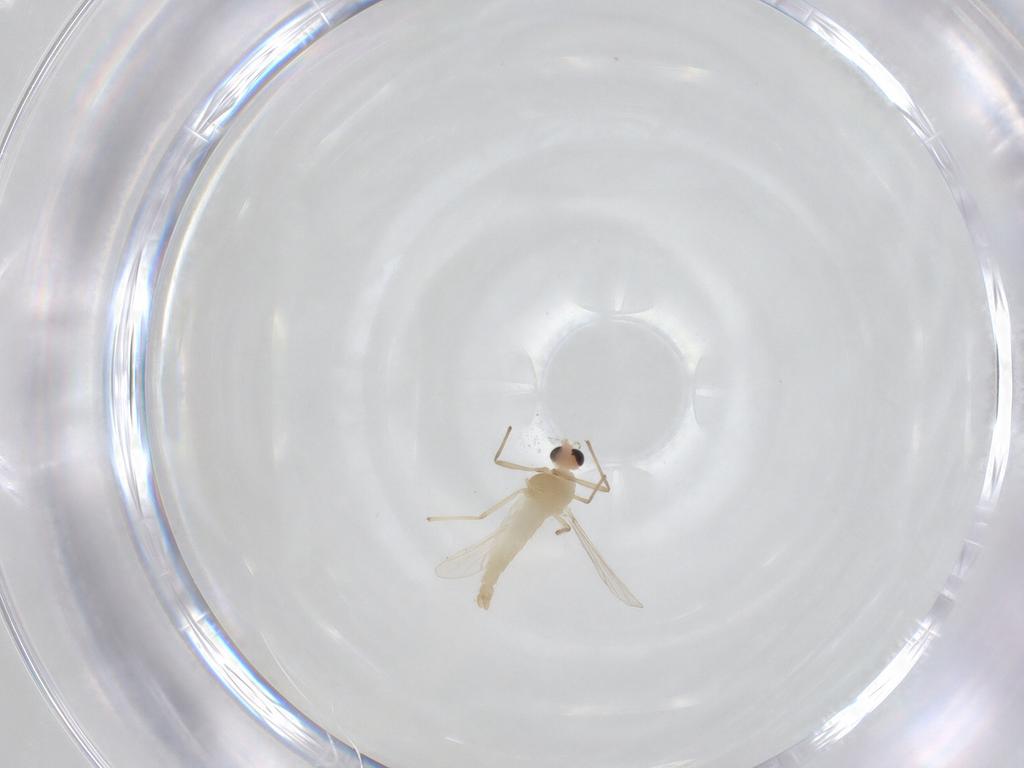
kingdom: Animalia
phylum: Arthropoda
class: Insecta
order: Diptera
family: Chironomidae
